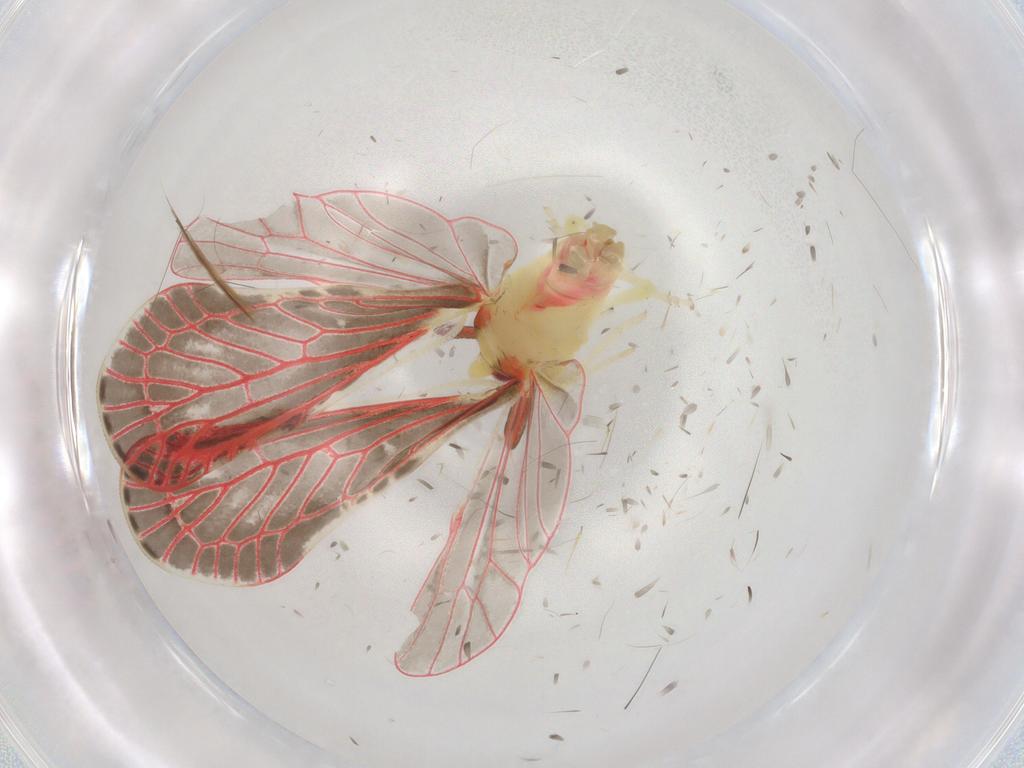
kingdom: Animalia
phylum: Arthropoda
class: Insecta
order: Hemiptera
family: Derbidae
